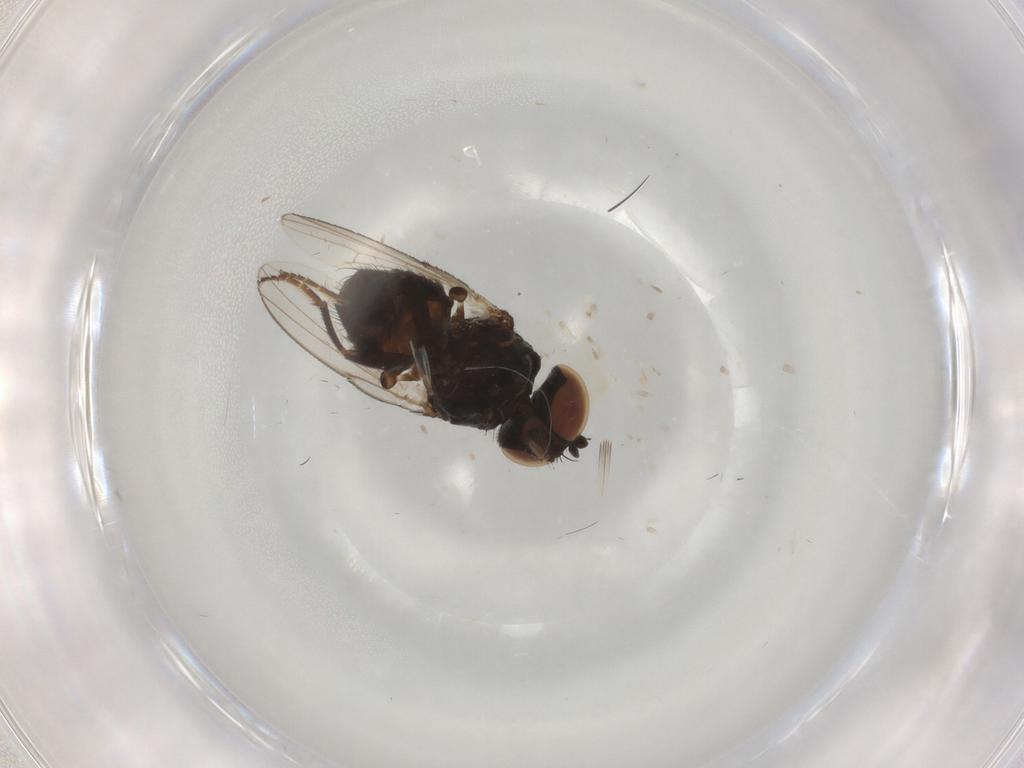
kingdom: Animalia
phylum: Arthropoda
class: Insecta
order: Diptera
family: Milichiidae
